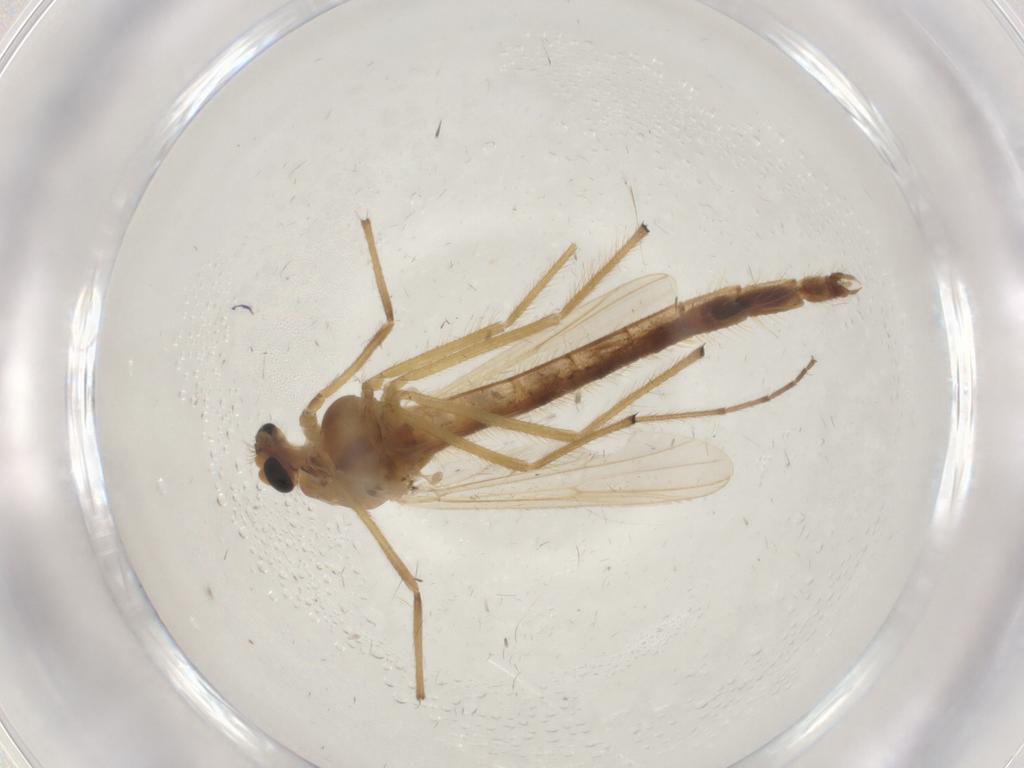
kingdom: Animalia
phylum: Arthropoda
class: Insecta
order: Diptera
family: Chironomidae
